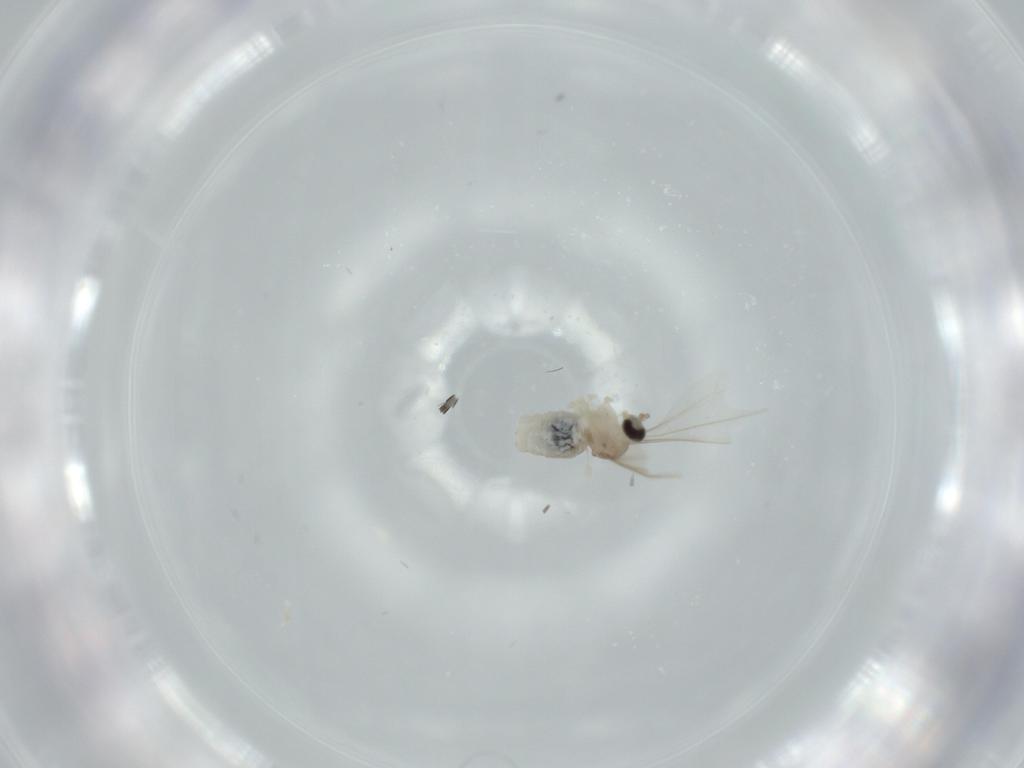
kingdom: Animalia
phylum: Arthropoda
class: Insecta
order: Diptera
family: Cecidomyiidae
